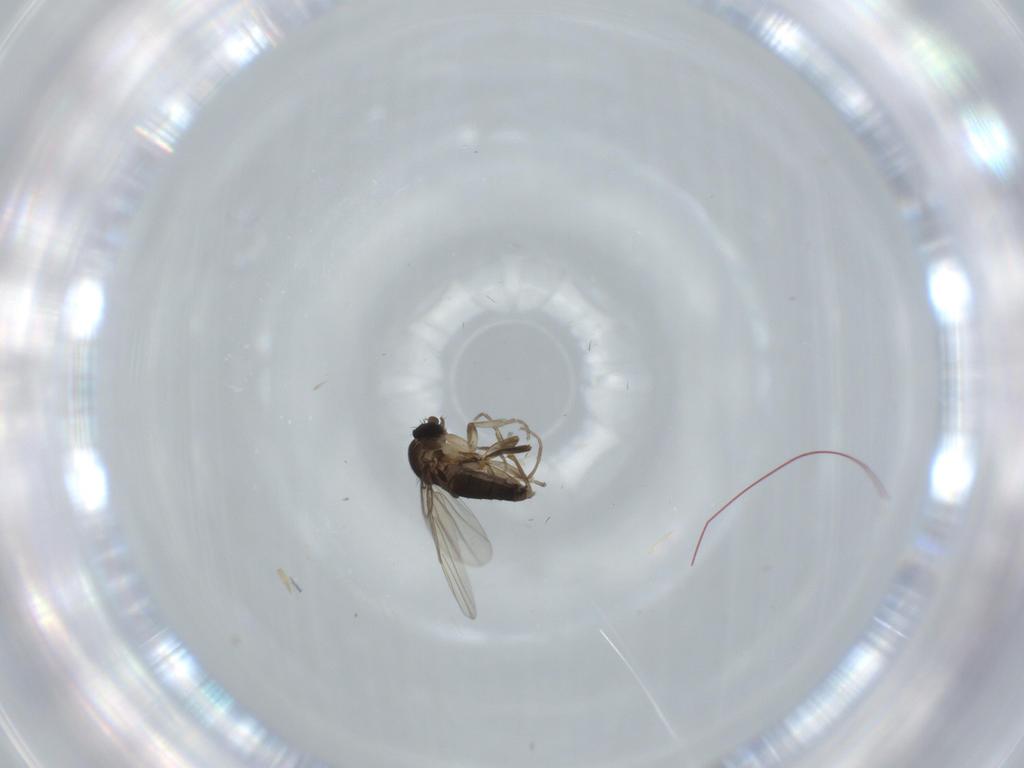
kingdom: Animalia
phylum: Arthropoda
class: Insecta
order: Diptera
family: Phoridae
